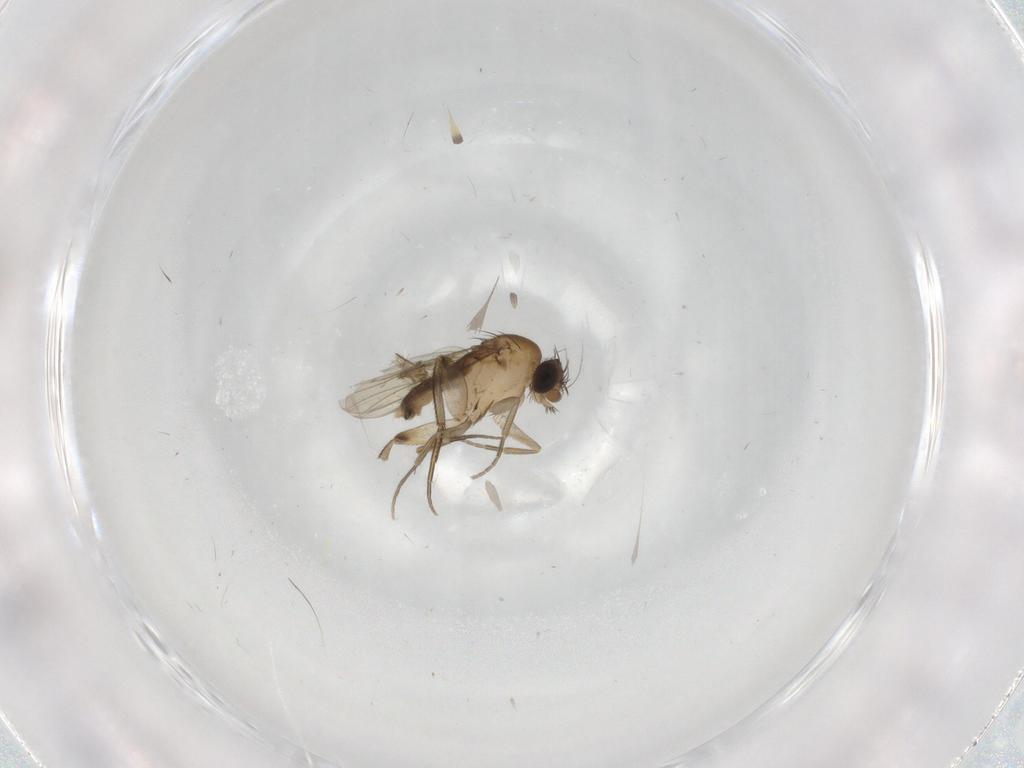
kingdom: Animalia
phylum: Arthropoda
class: Insecta
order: Diptera
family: Phoridae
